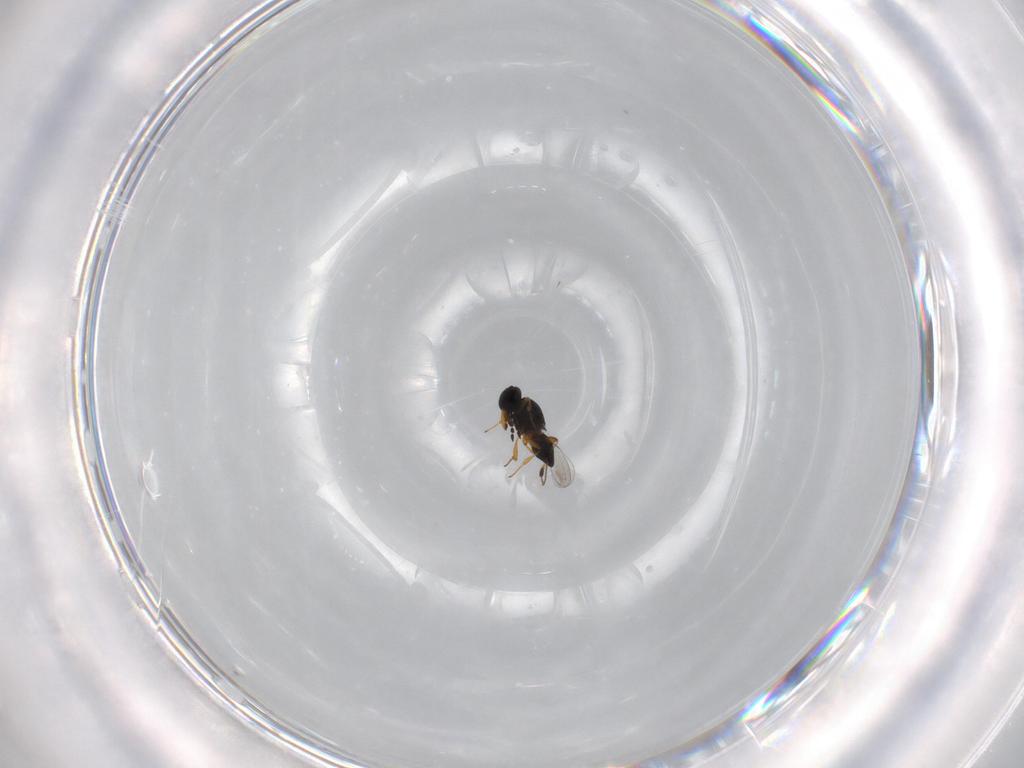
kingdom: Animalia
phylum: Arthropoda
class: Insecta
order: Hymenoptera
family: Platygastridae
